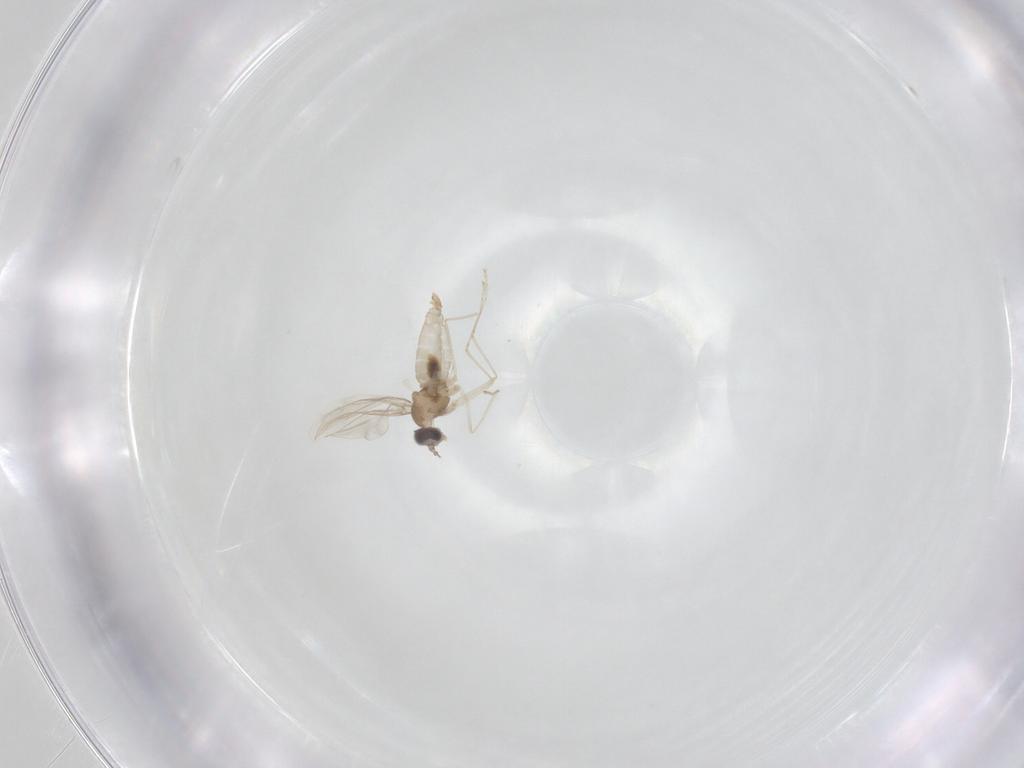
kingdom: Animalia
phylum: Arthropoda
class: Insecta
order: Diptera
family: Cecidomyiidae
